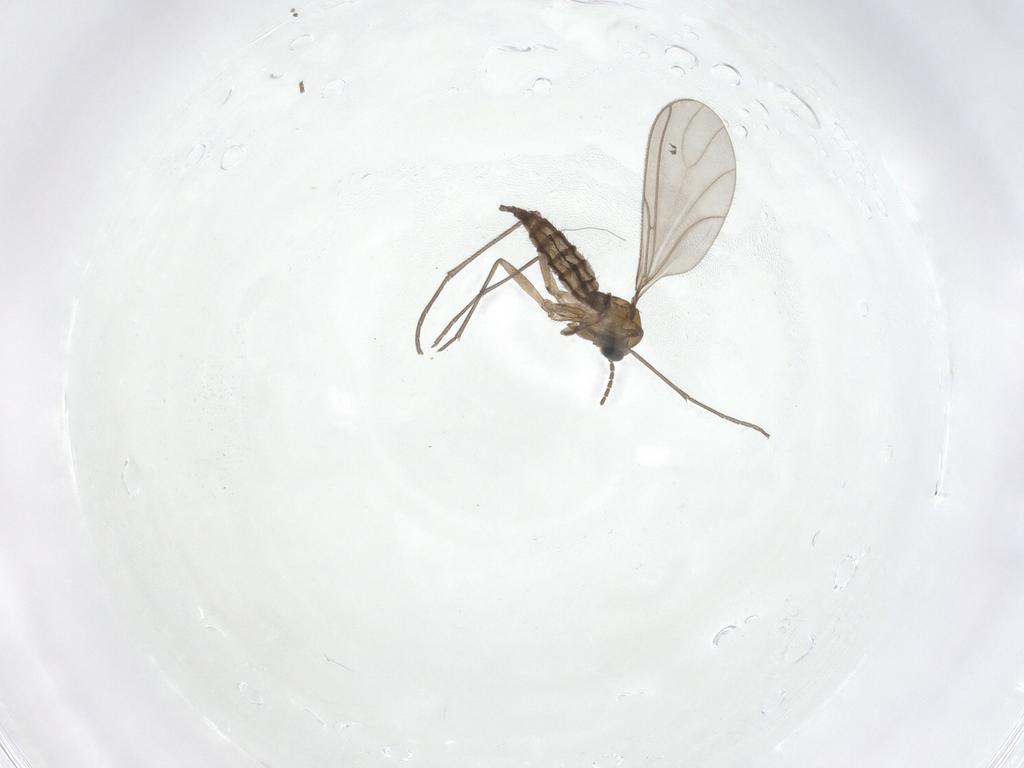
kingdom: Animalia
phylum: Arthropoda
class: Insecta
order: Diptera
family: Sciaridae
